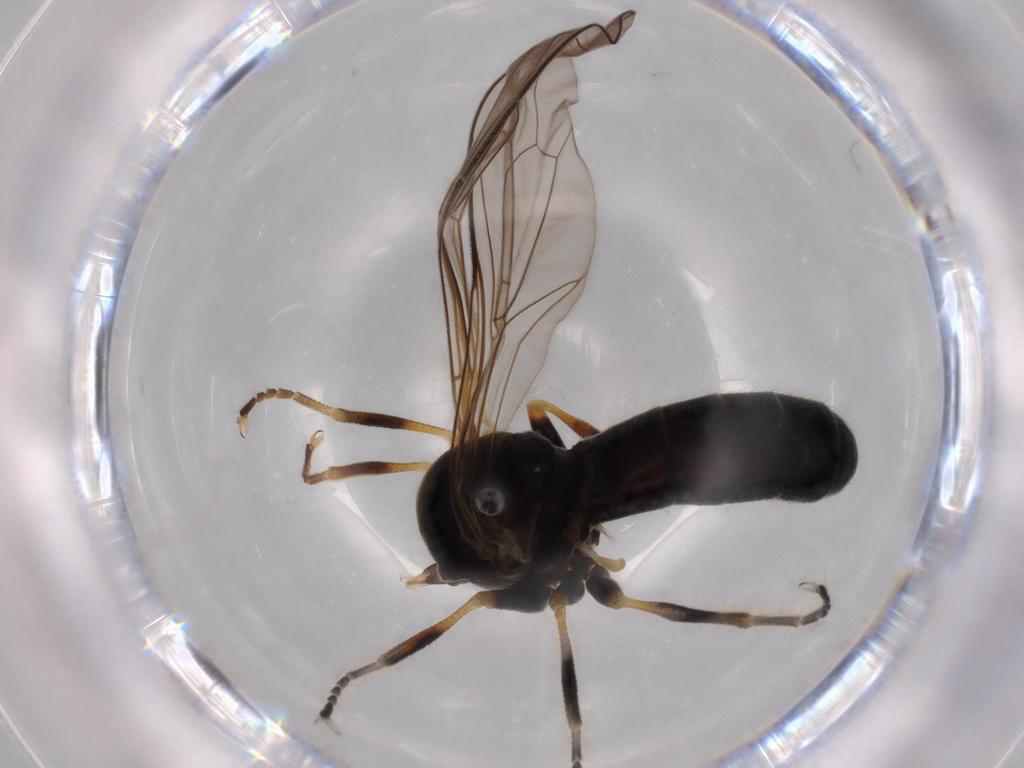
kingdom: Animalia
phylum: Arthropoda
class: Insecta
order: Diptera
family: Pipunculidae
